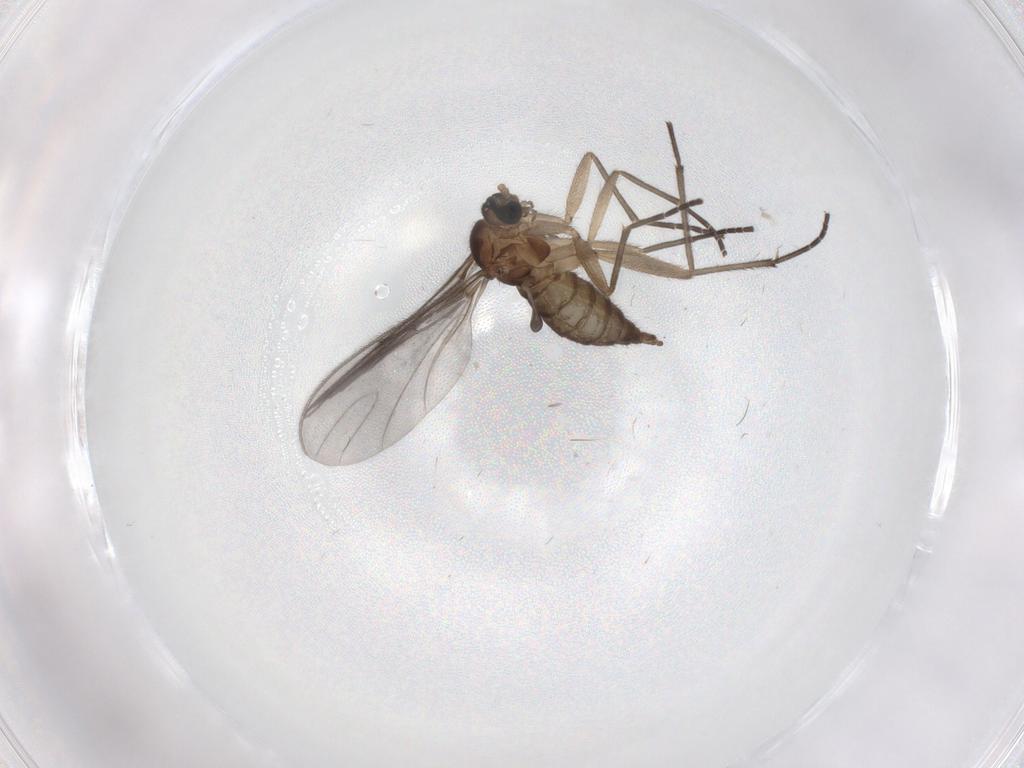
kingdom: Animalia
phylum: Arthropoda
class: Insecta
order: Diptera
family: Sciaridae
